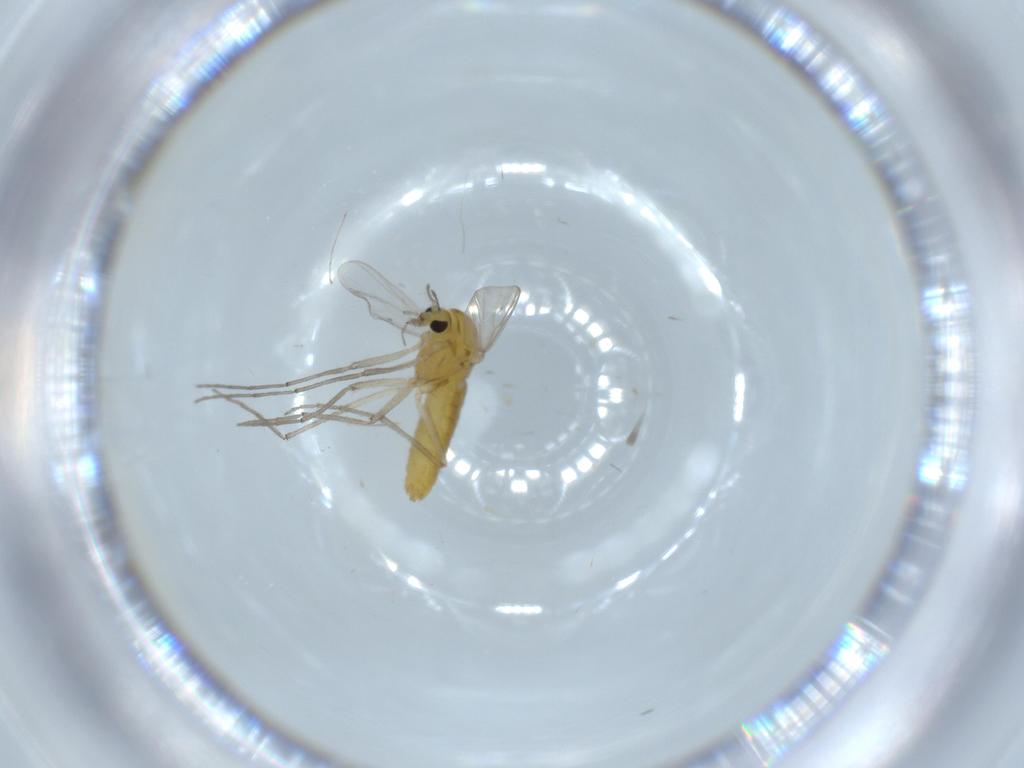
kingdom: Animalia
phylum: Arthropoda
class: Insecta
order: Diptera
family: Chironomidae
